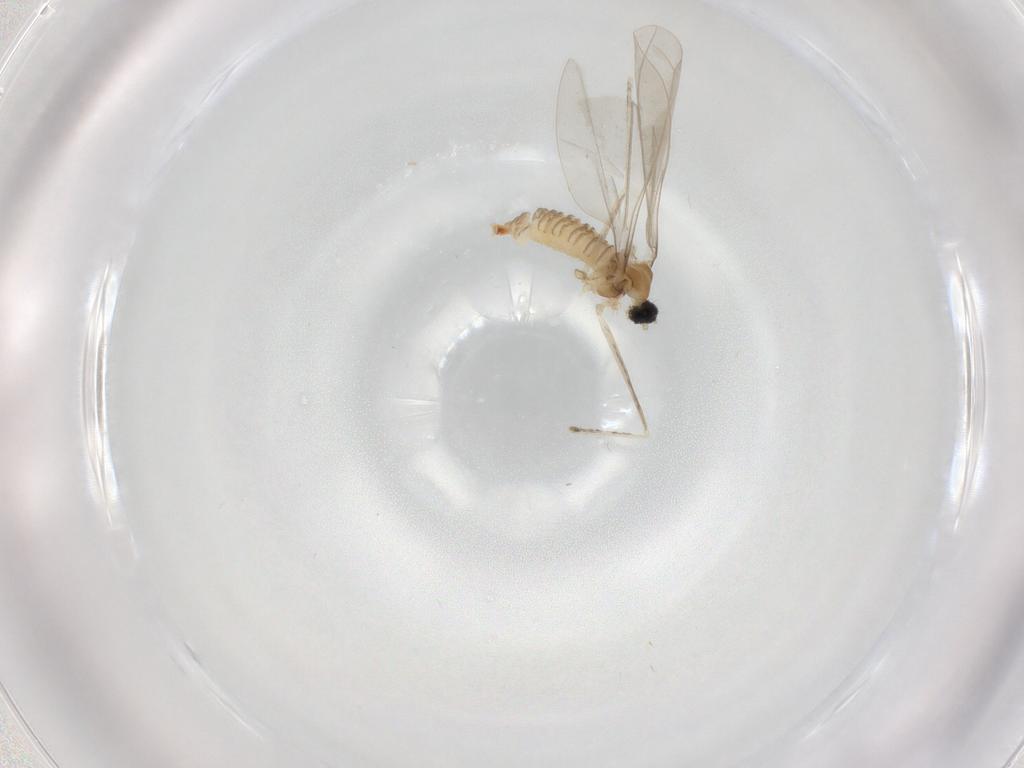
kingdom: Animalia
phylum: Arthropoda
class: Insecta
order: Diptera
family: Cecidomyiidae
